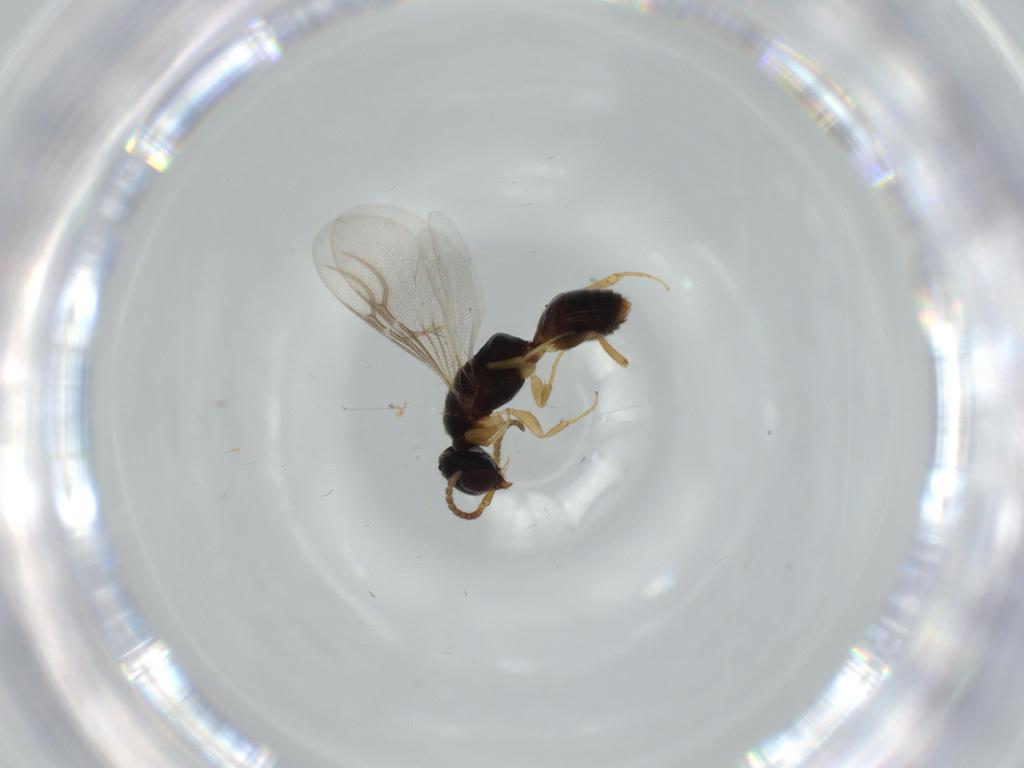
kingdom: Animalia
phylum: Arthropoda
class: Insecta
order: Hymenoptera
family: Bethylidae
